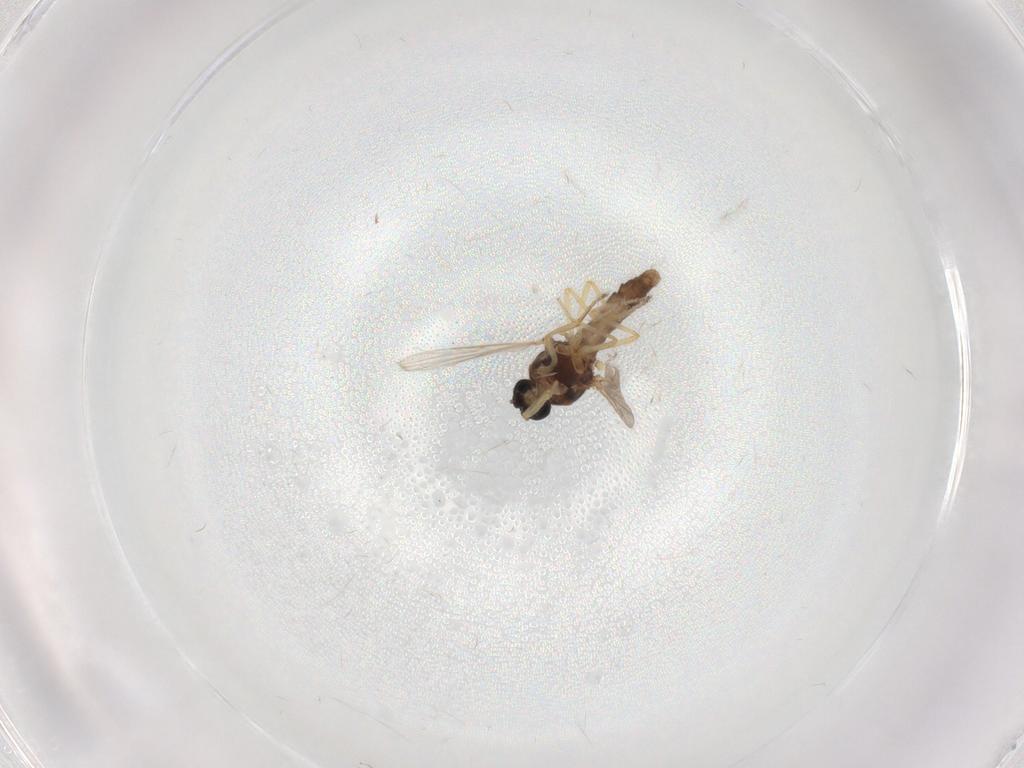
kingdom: Animalia
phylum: Arthropoda
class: Insecta
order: Diptera
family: Ceratopogonidae
